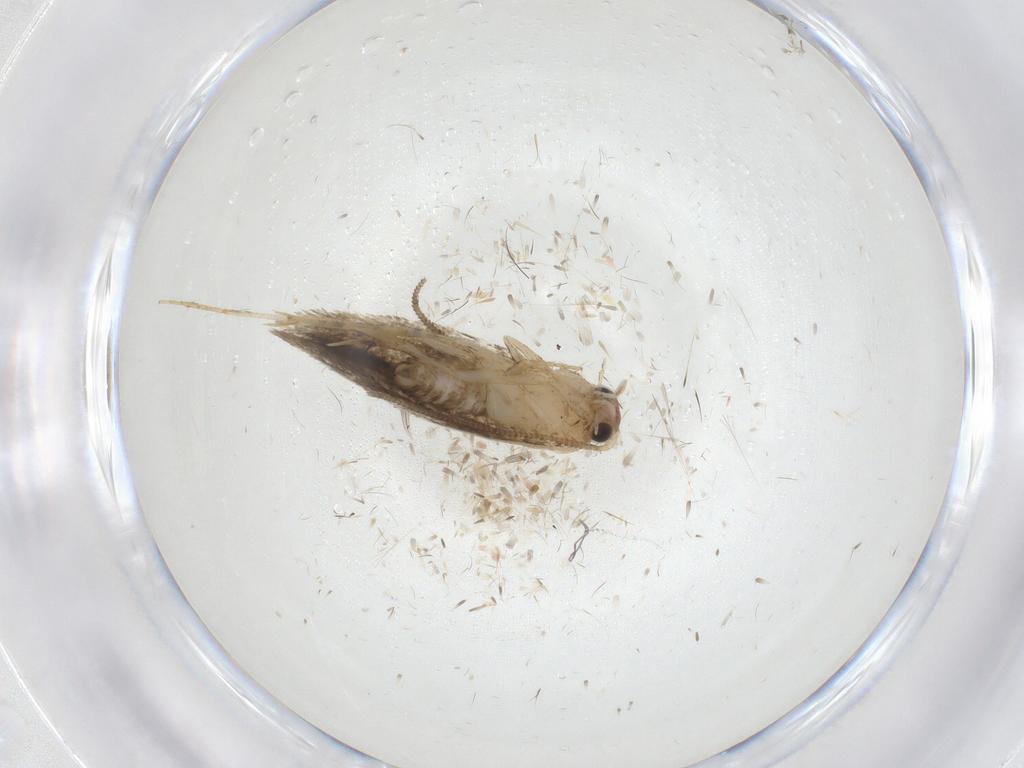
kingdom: Animalia
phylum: Arthropoda
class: Insecta
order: Lepidoptera
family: Tineidae
